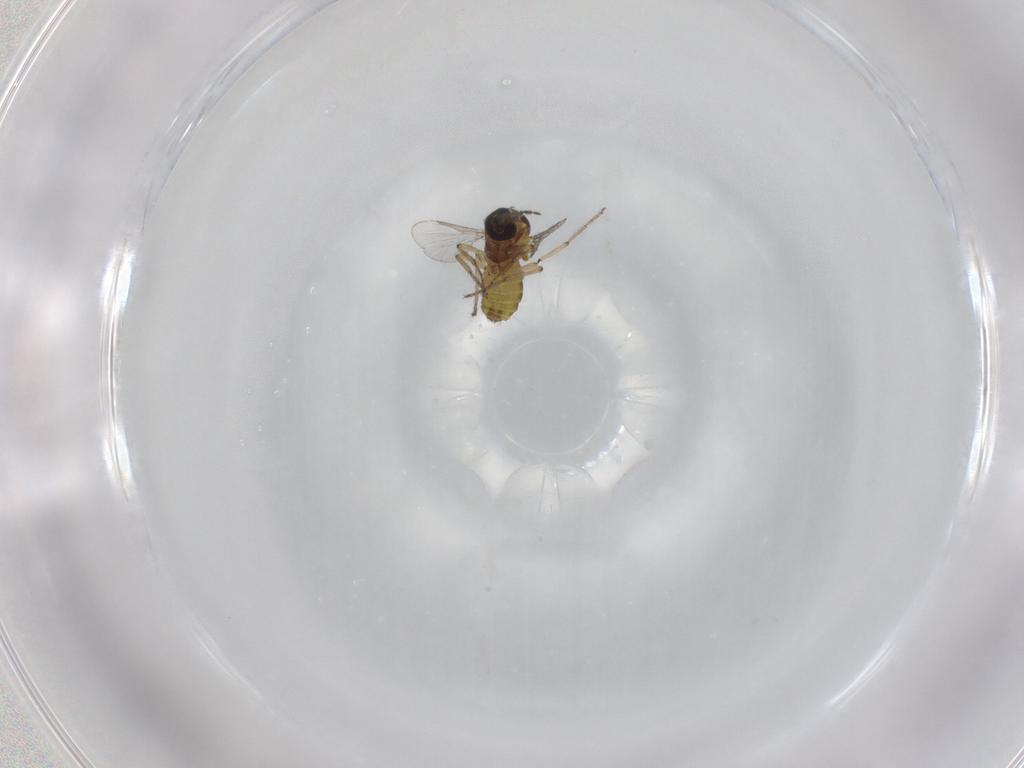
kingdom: Animalia
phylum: Arthropoda
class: Insecta
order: Diptera
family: Ceratopogonidae
